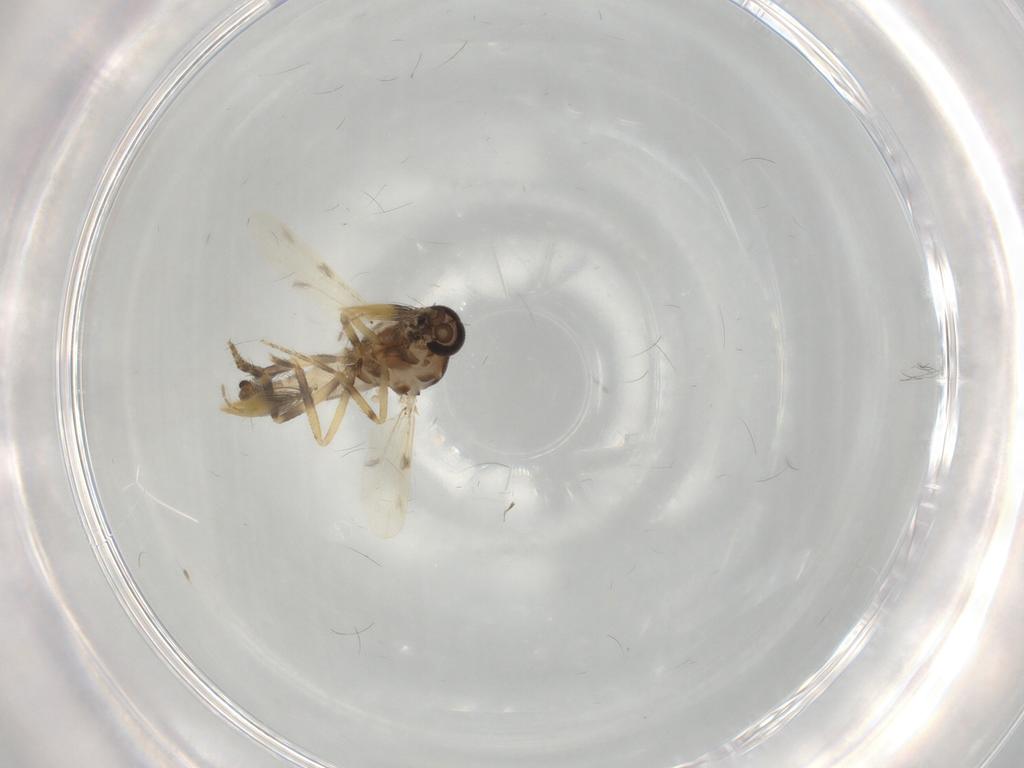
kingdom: Animalia
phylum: Arthropoda
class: Insecta
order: Diptera
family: Ceratopogonidae
